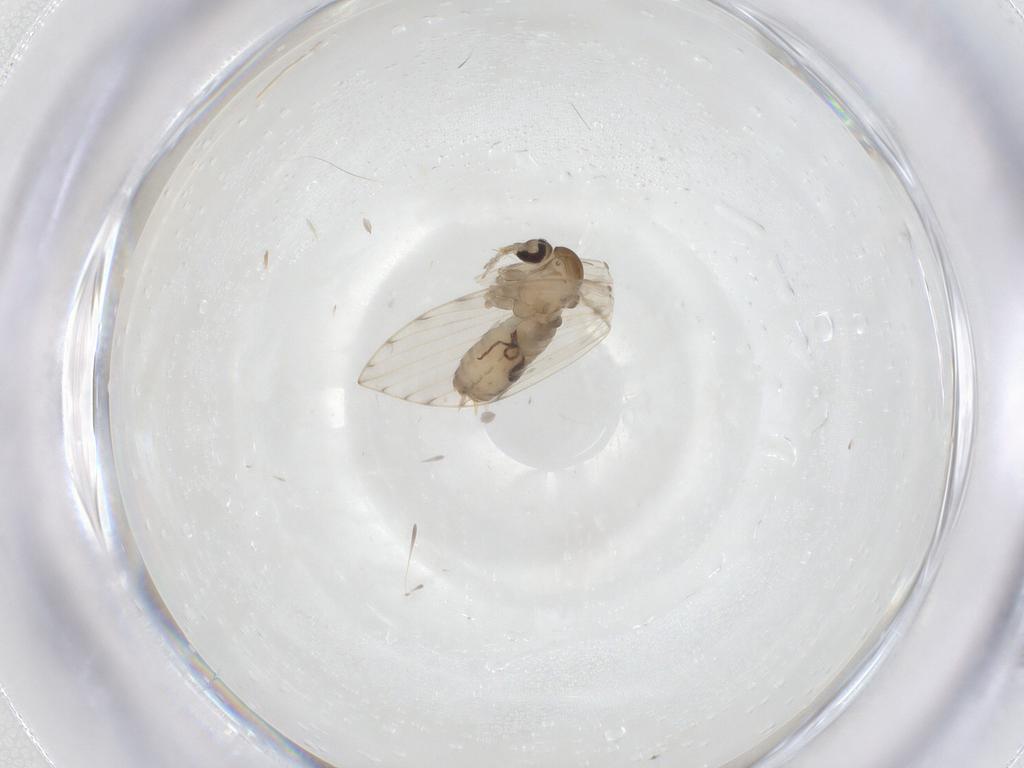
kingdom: Animalia
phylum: Arthropoda
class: Insecta
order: Diptera
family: Psychodidae
